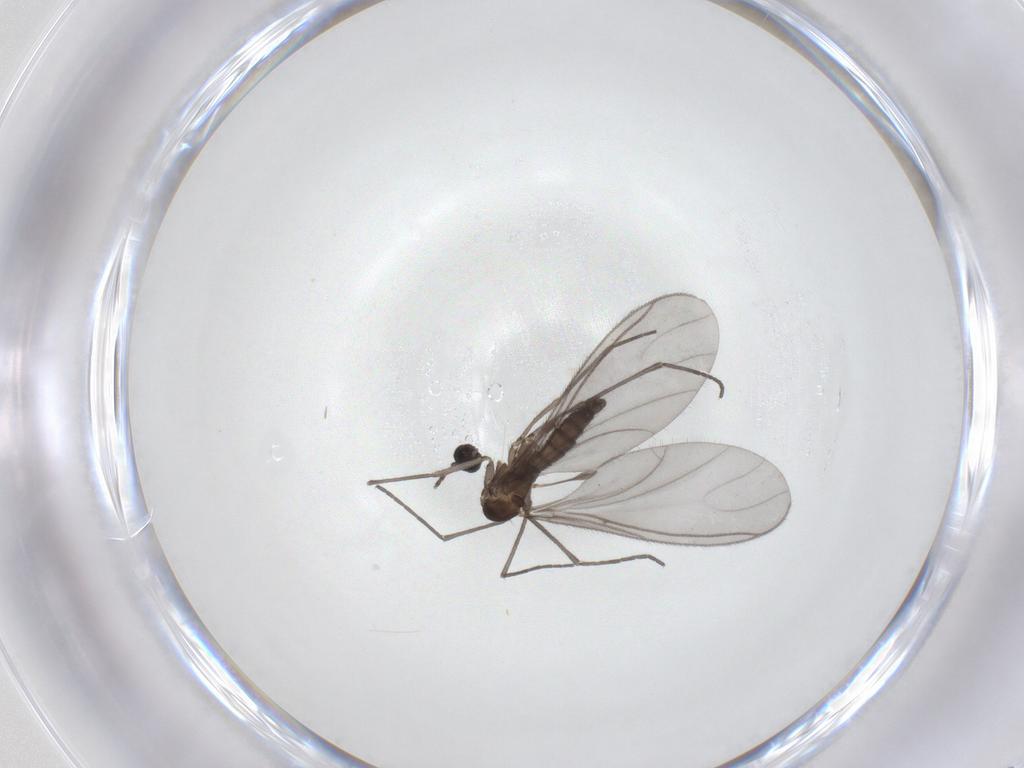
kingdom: Animalia
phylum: Arthropoda
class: Insecta
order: Diptera
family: Sciaridae
